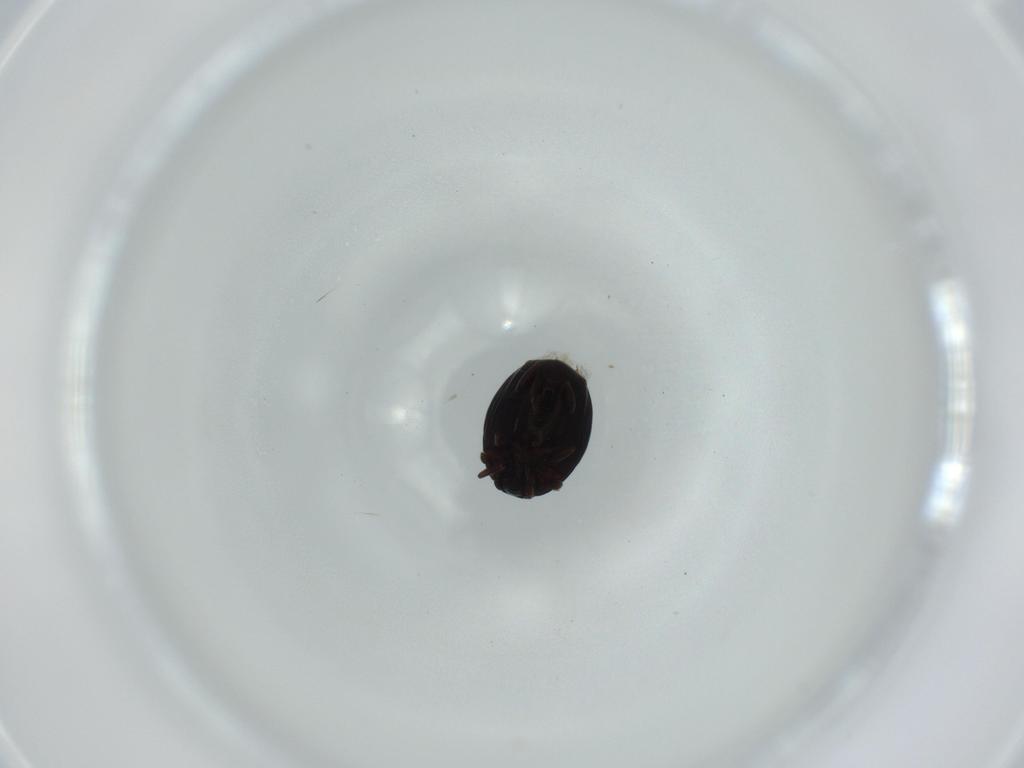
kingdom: Animalia
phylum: Arthropoda
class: Insecta
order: Coleoptera
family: Histeridae
